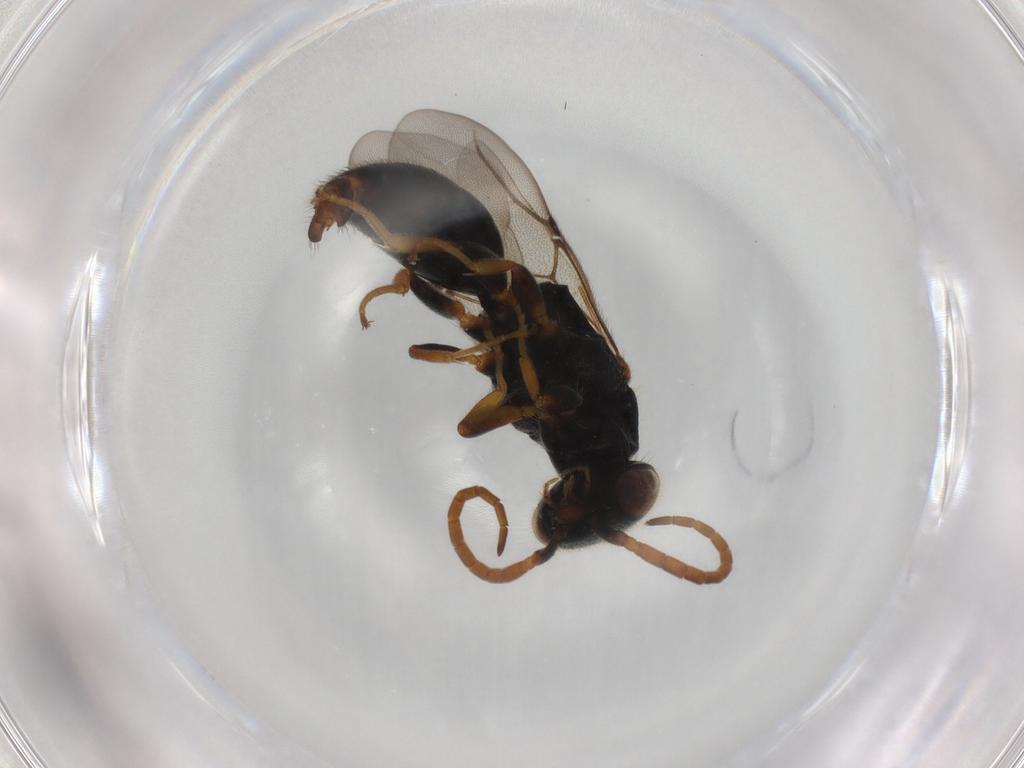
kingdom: Animalia
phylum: Arthropoda
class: Insecta
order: Hymenoptera
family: Bethylidae
